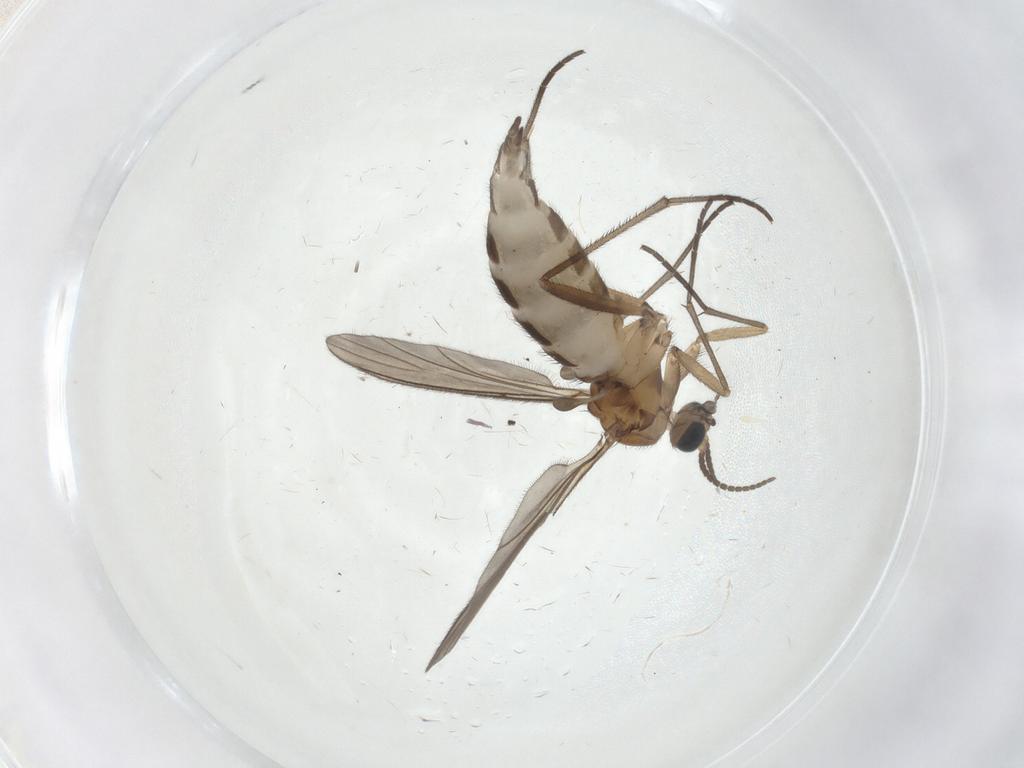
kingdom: Animalia
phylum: Arthropoda
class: Insecta
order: Diptera
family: Sciaridae
